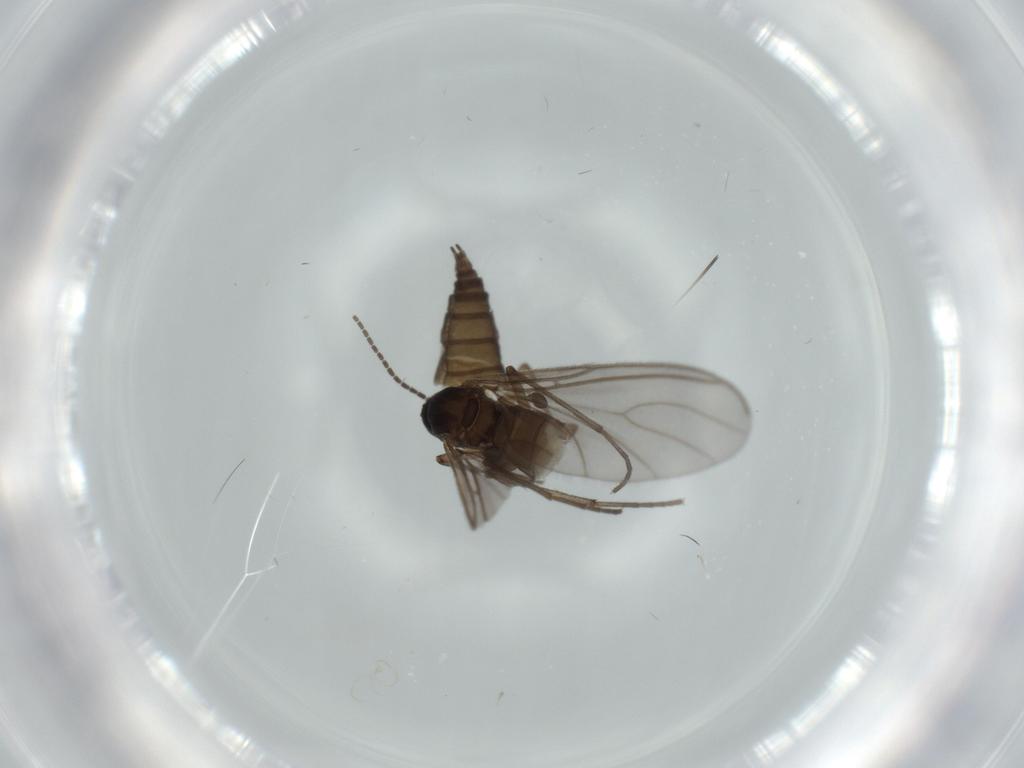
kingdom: Animalia
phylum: Arthropoda
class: Insecta
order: Diptera
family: Sciaridae
